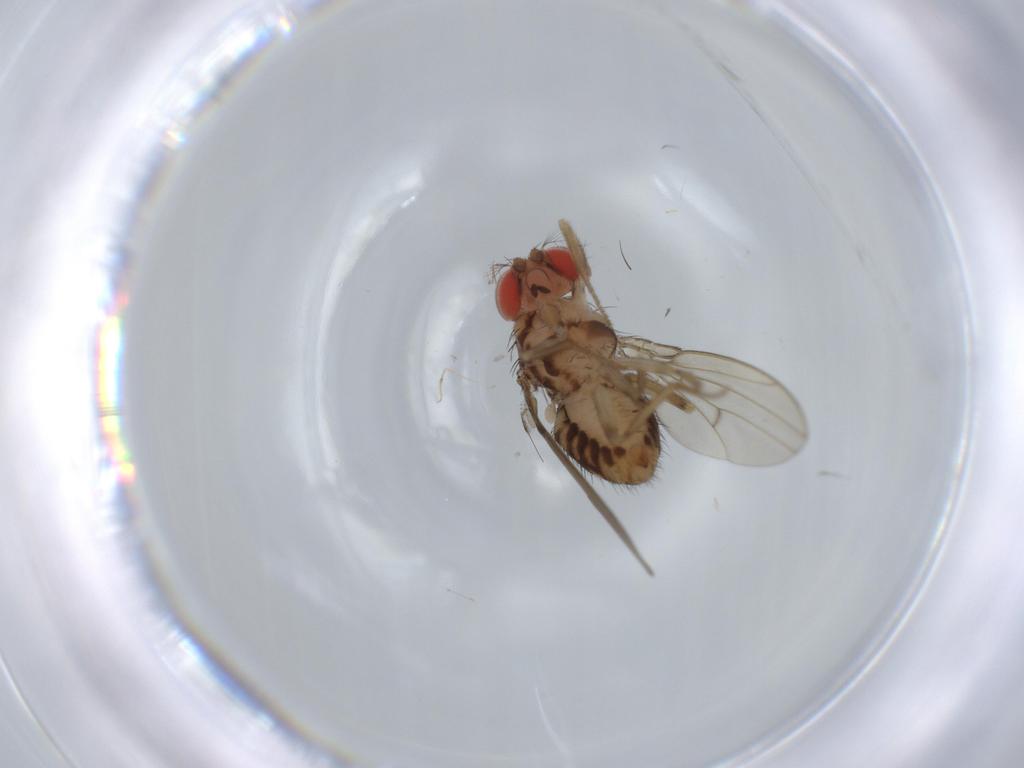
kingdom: Animalia
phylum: Arthropoda
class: Insecta
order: Diptera
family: Drosophilidae
